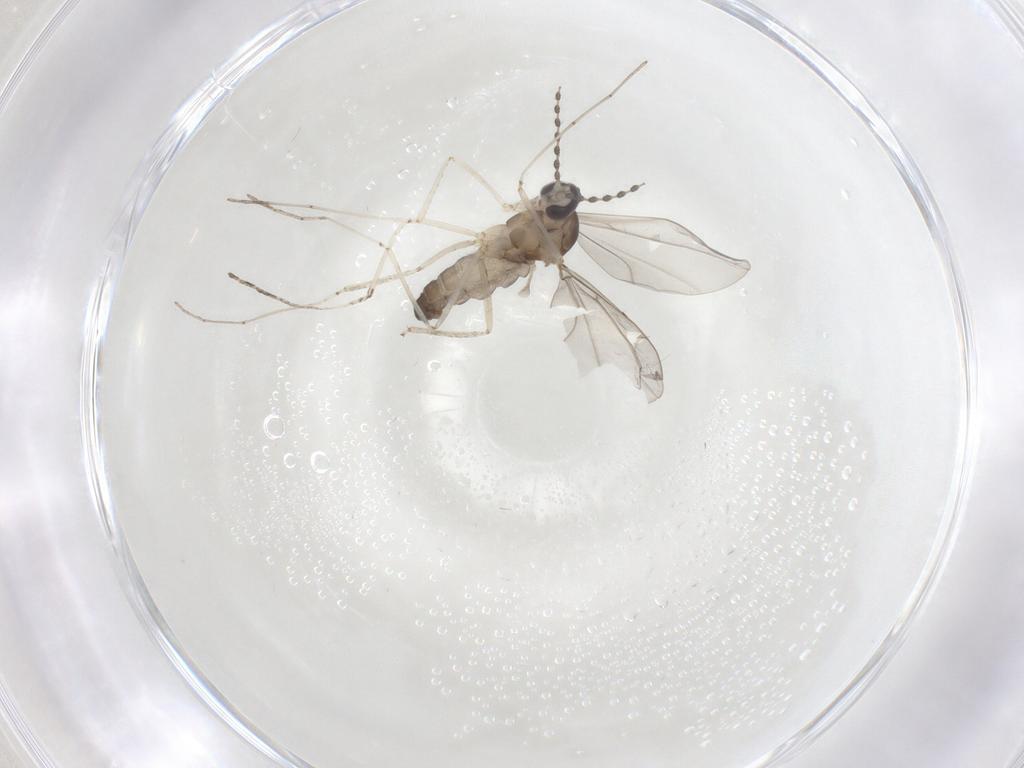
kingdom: Animalia
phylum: Arthropoda
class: Insecta
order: Diptera
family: Cecidomyiidae
